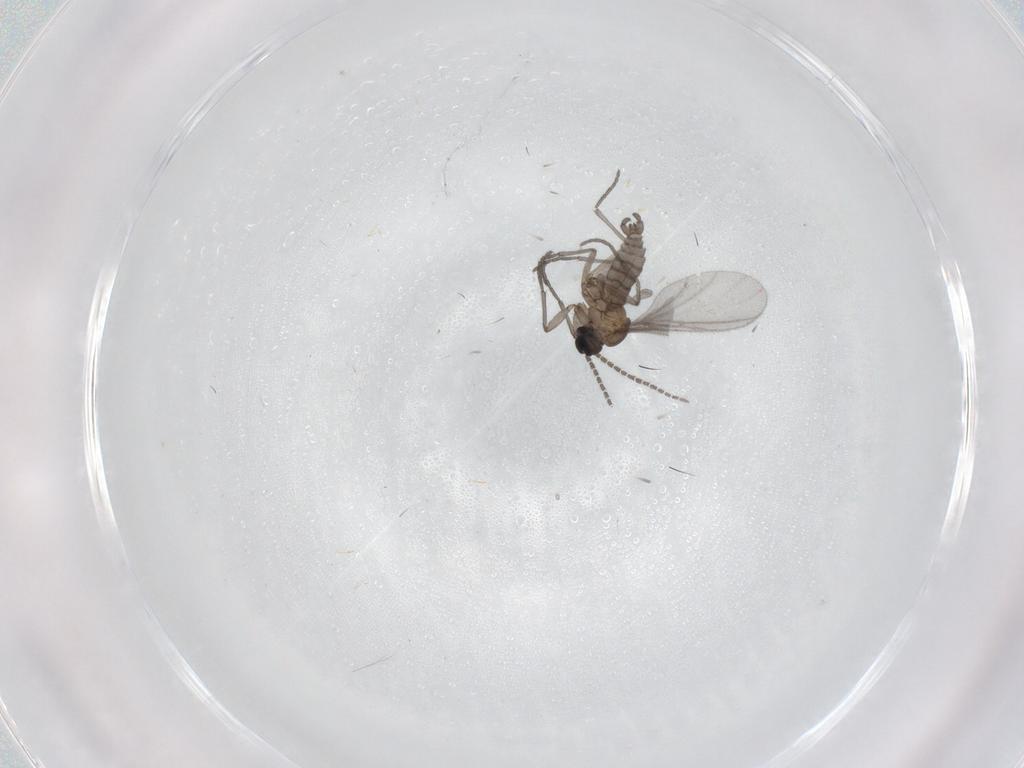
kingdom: Animalia
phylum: Arthropoda
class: Insecta
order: Diptera
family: Sciaridae
